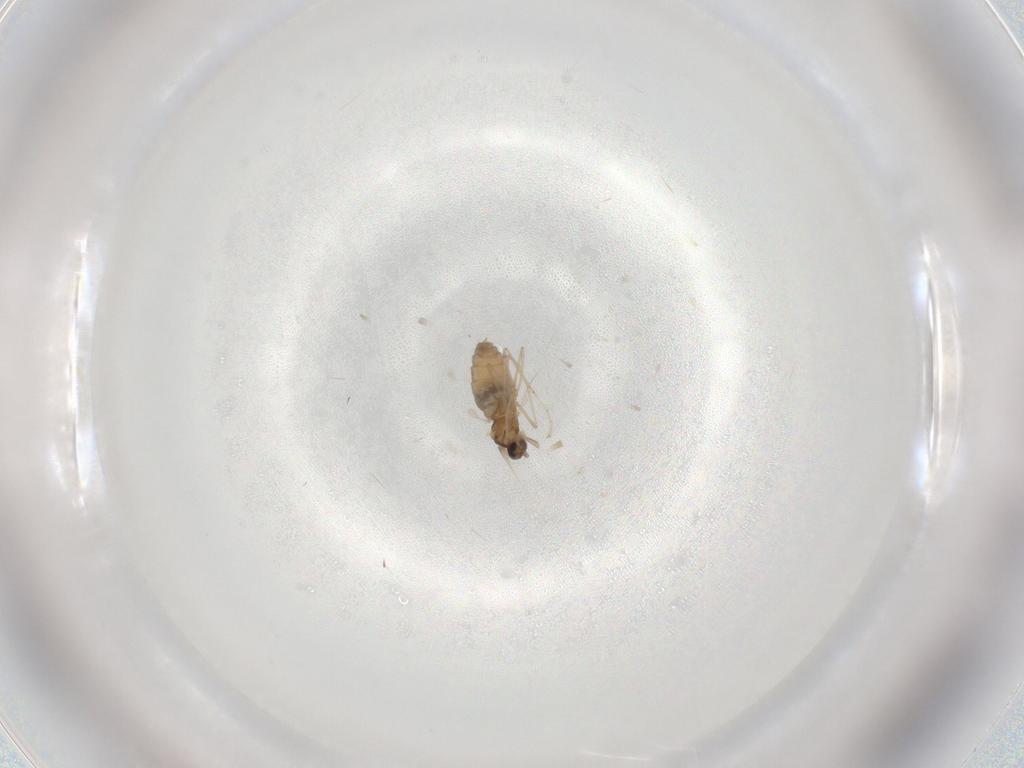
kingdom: Animalia
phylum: Arthropoda
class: Insecta
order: Diptera
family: Cecidomyiidae
